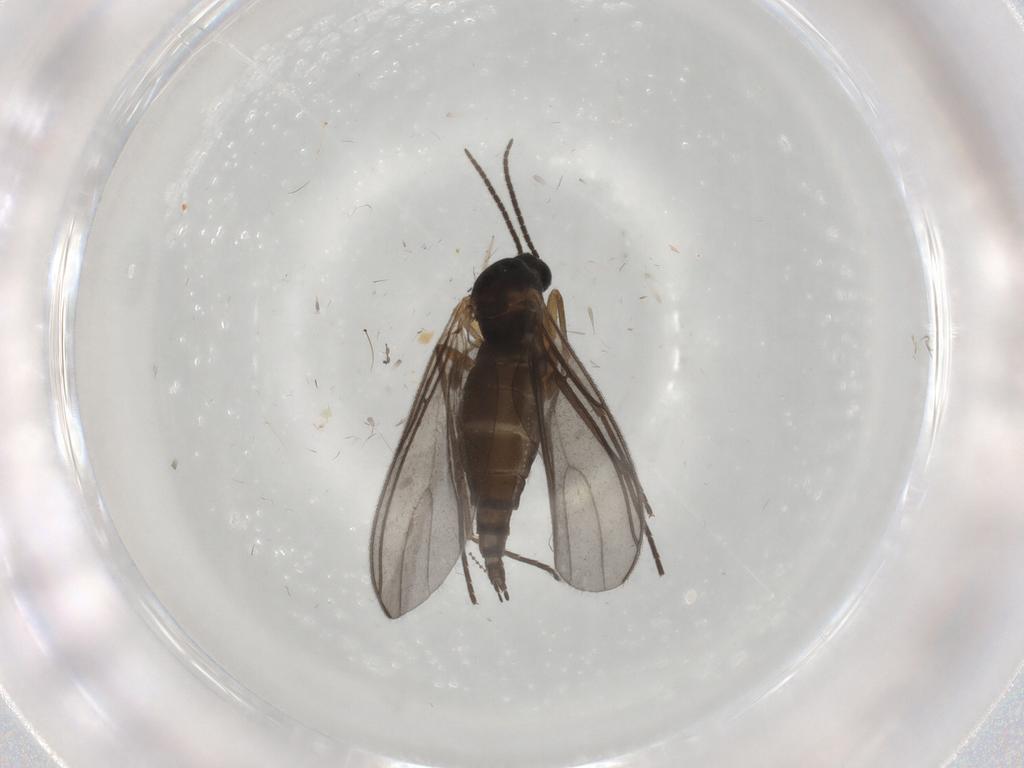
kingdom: Animalia
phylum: Arthropoda
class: Insecta
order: Diptera
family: Sciaridae
